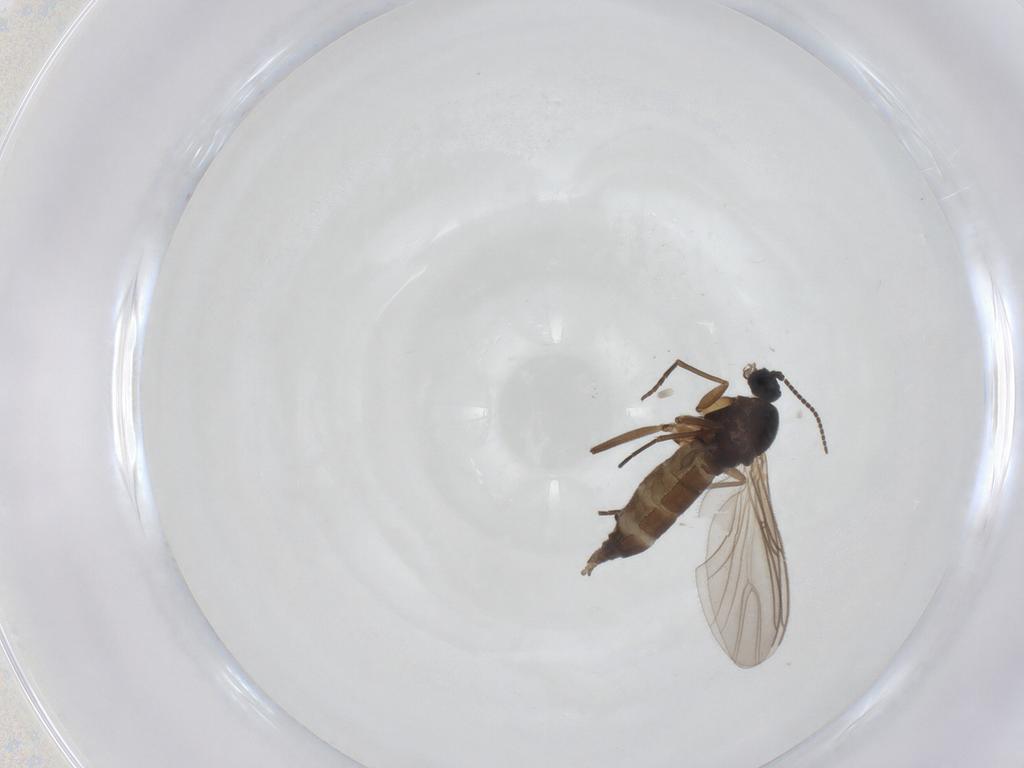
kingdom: Animalia
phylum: Arthropoda
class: Insecta
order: Diptera
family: Sciaridae
